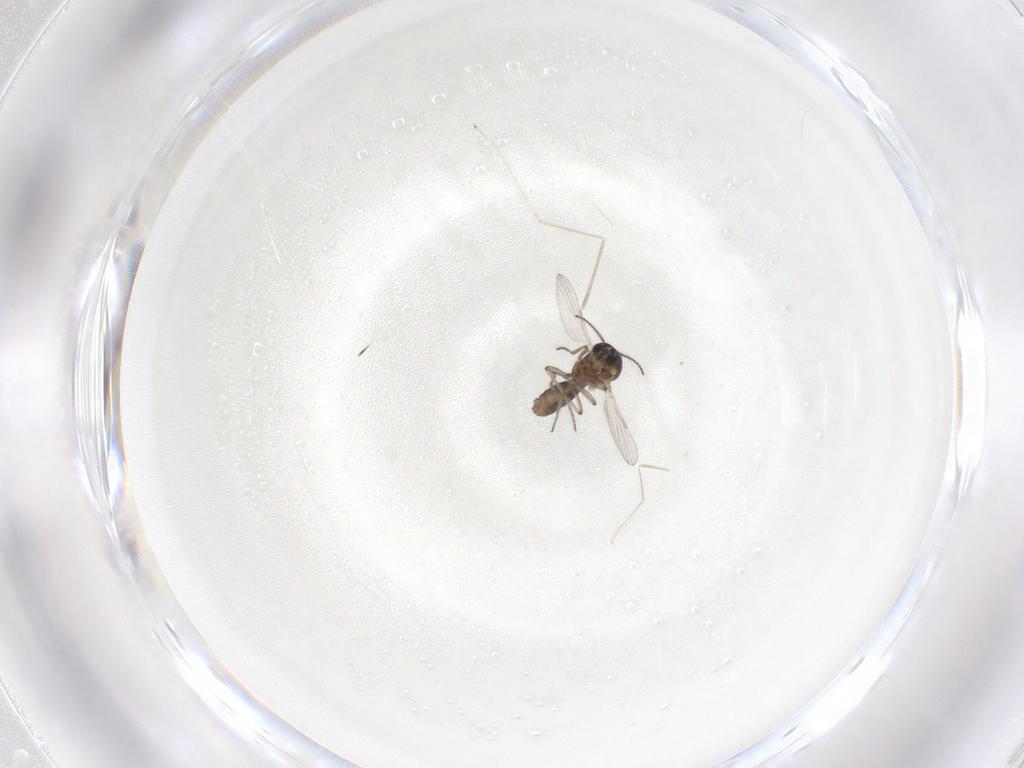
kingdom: Animalia
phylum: Arthropoda
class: Insecta
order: Diptera
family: Ceratopogonidae
